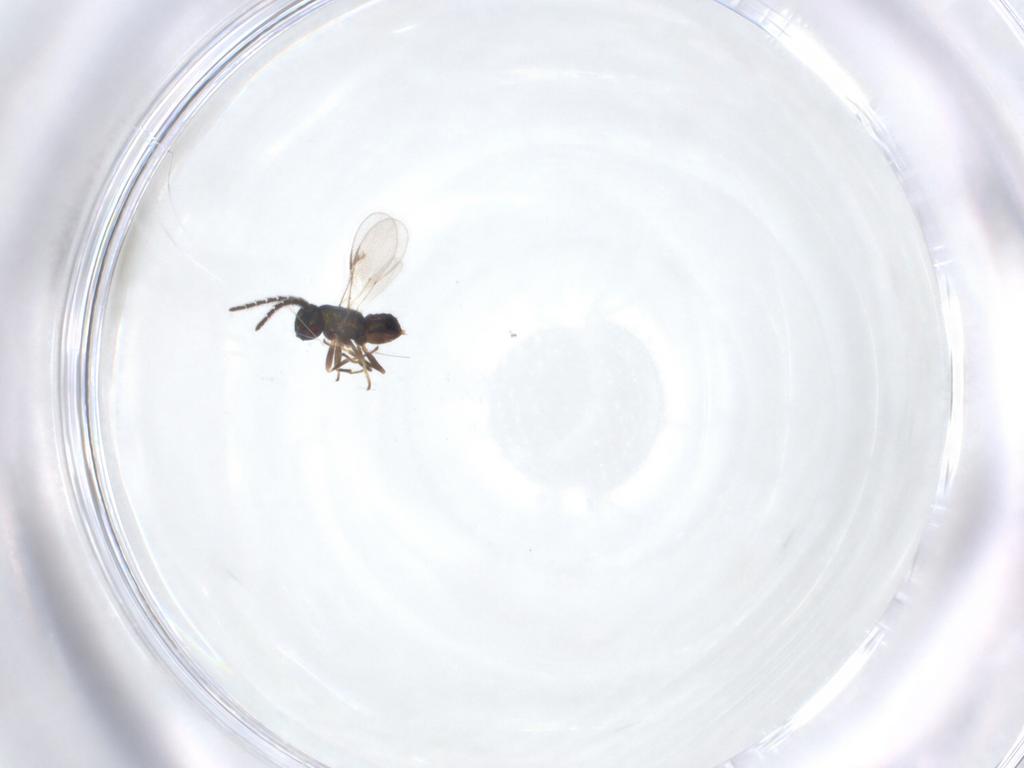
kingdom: Animalia
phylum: Arthropoda
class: Insecta
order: Hymenoptera
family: Encyrtidae
